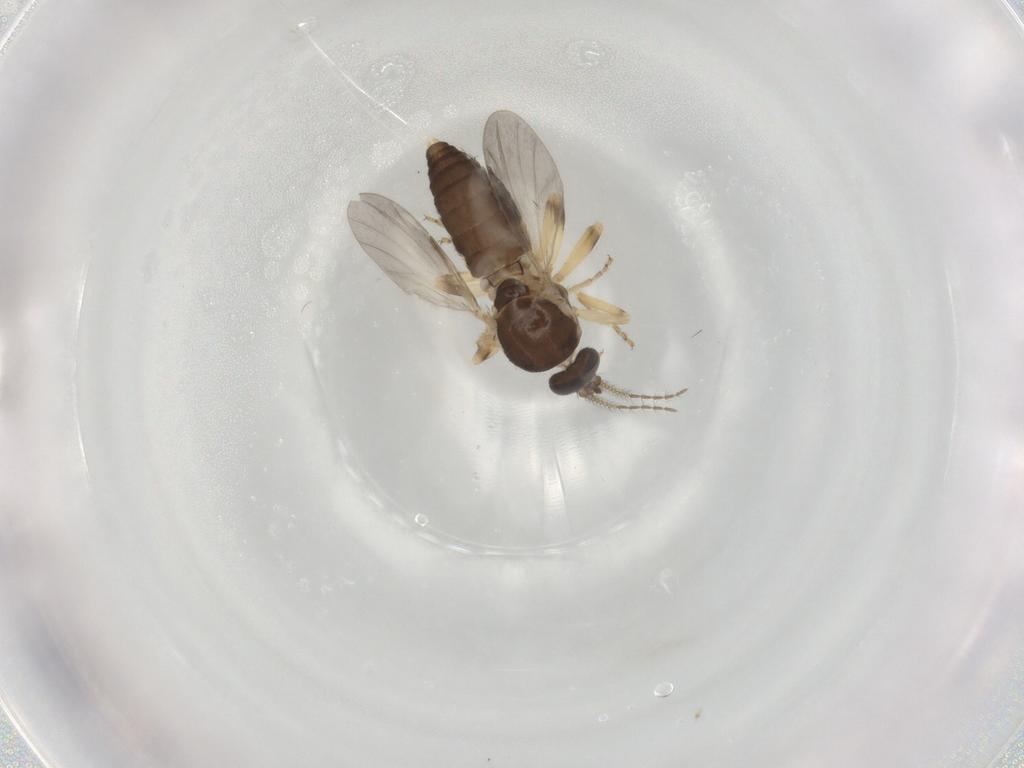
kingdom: Animalia
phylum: Arthropoda
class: Insecta
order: Diptera
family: Ceratopogonidae
